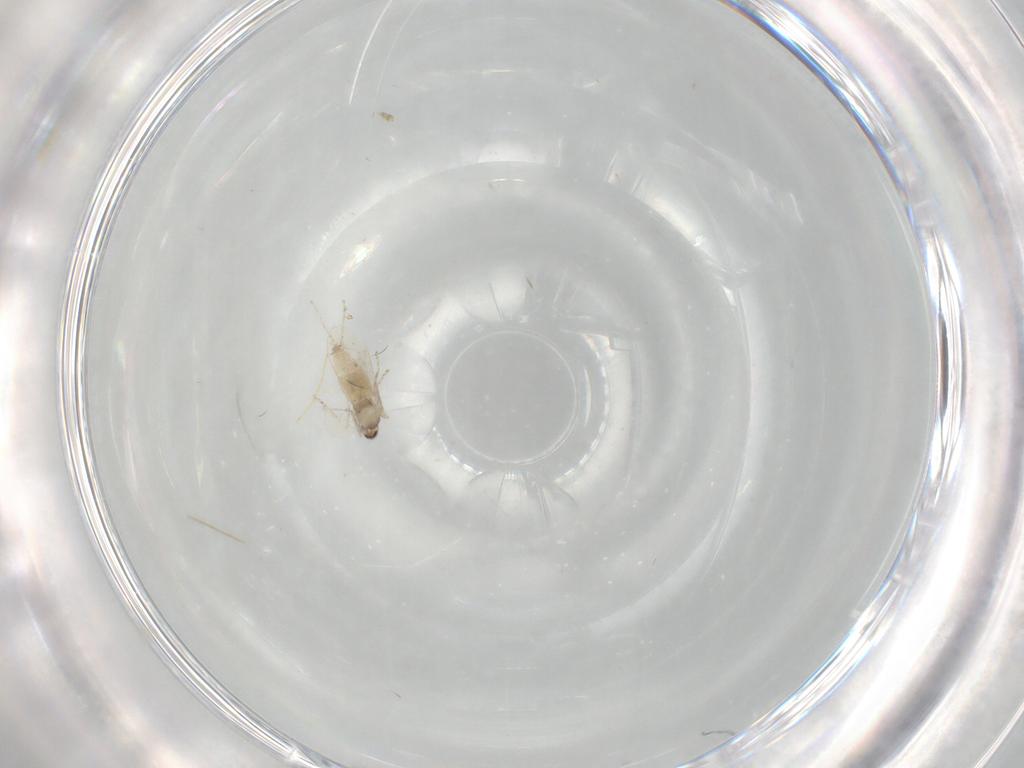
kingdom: Animalia
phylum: Arthropoda
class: Insecta
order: Diptera
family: Cecidomyiidae
